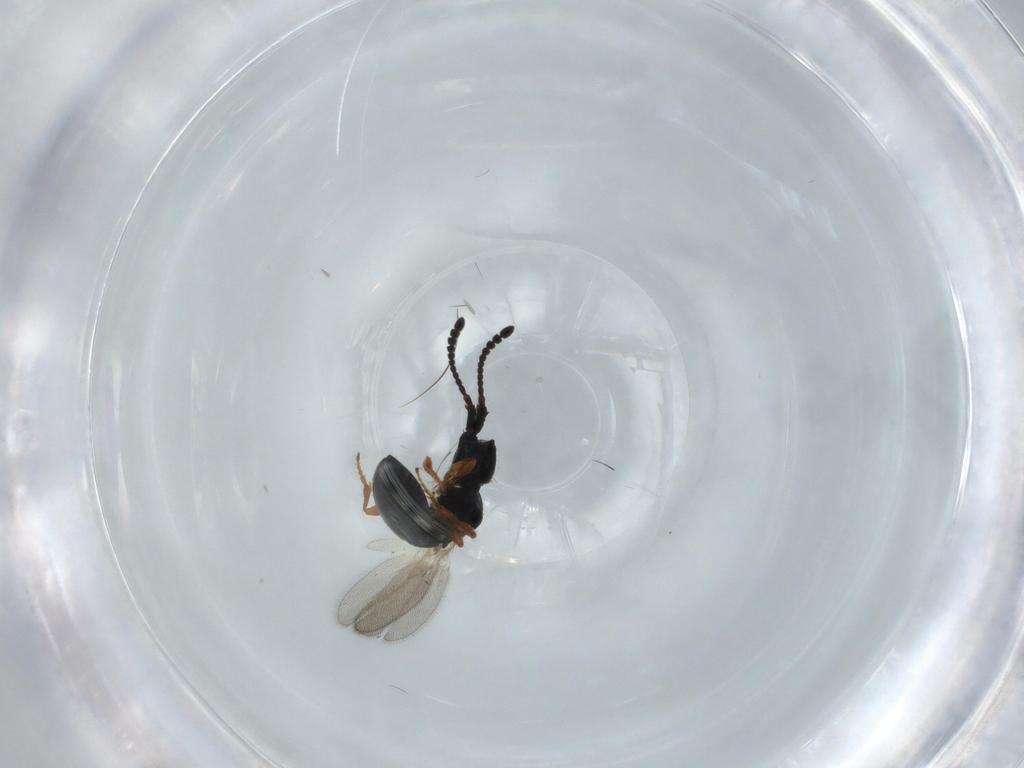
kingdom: Animalia
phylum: Arthropoda
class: Insecta
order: Hymenoptera
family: Diapriidae
